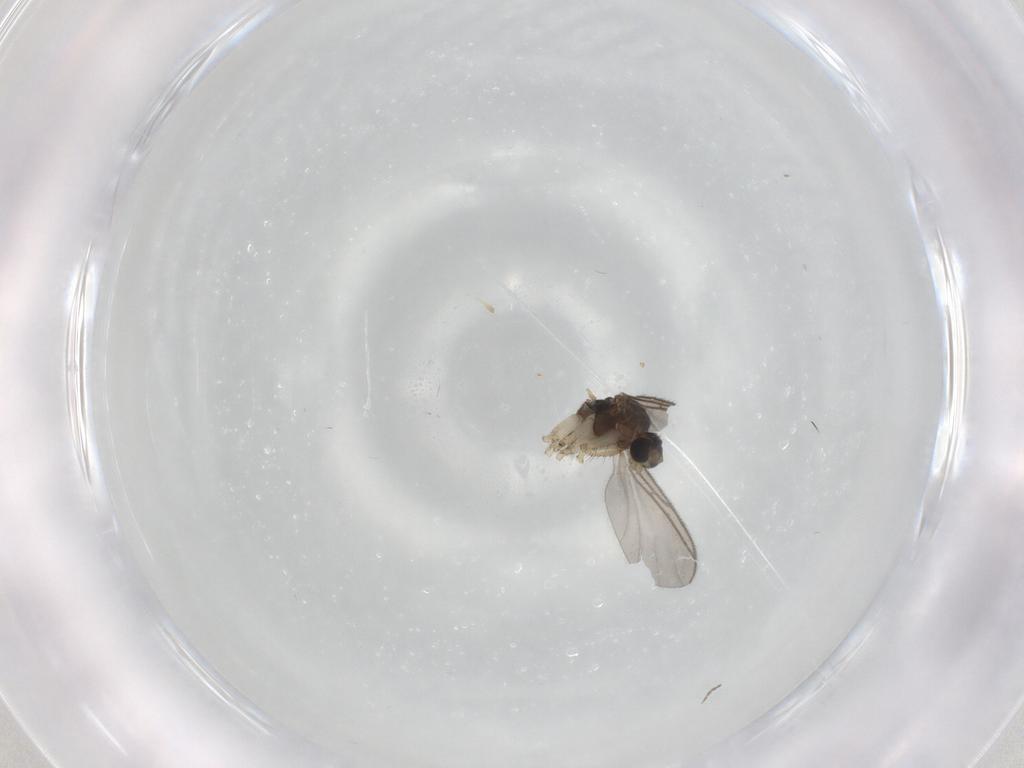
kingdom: Animalia
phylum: Arthropoda
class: Insecta
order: Diptera
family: Sciaridae
